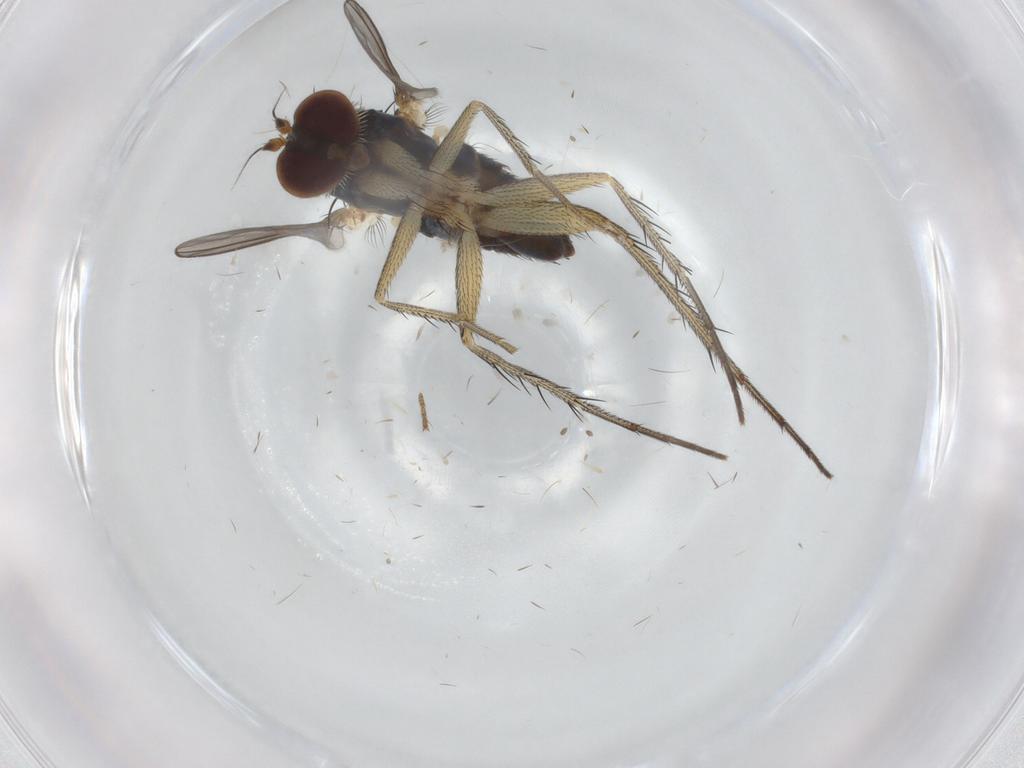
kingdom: Animalia
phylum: Arthropoda
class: Insecta
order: Diptera
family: Dolichopodidae
